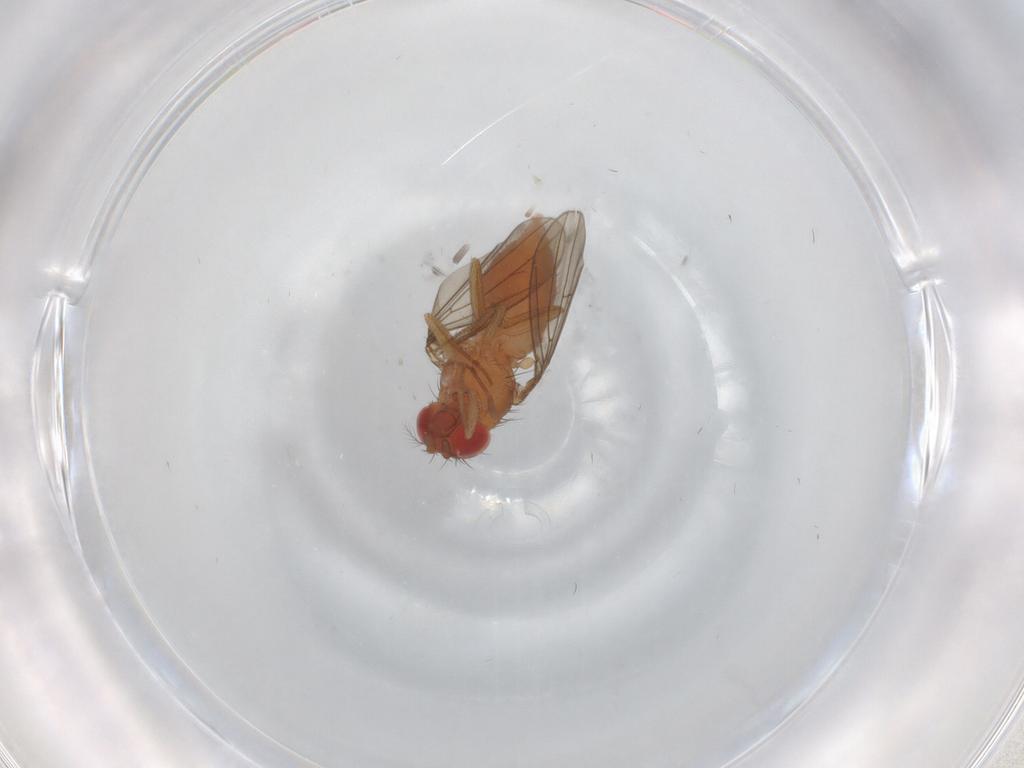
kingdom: Animalia
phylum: Arthropoda
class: Insecta
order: Diptera
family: Drosophilidae
